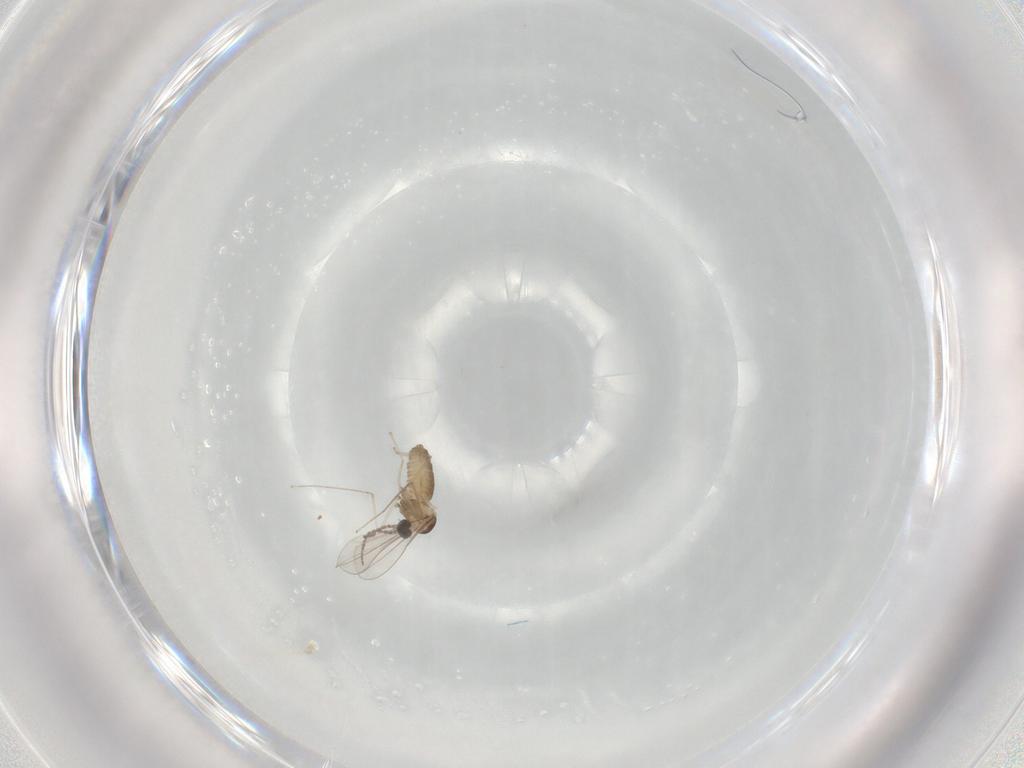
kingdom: Animalia
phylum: Arthropoda
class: Insecta
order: Diptera
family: Cecidomyiidae
